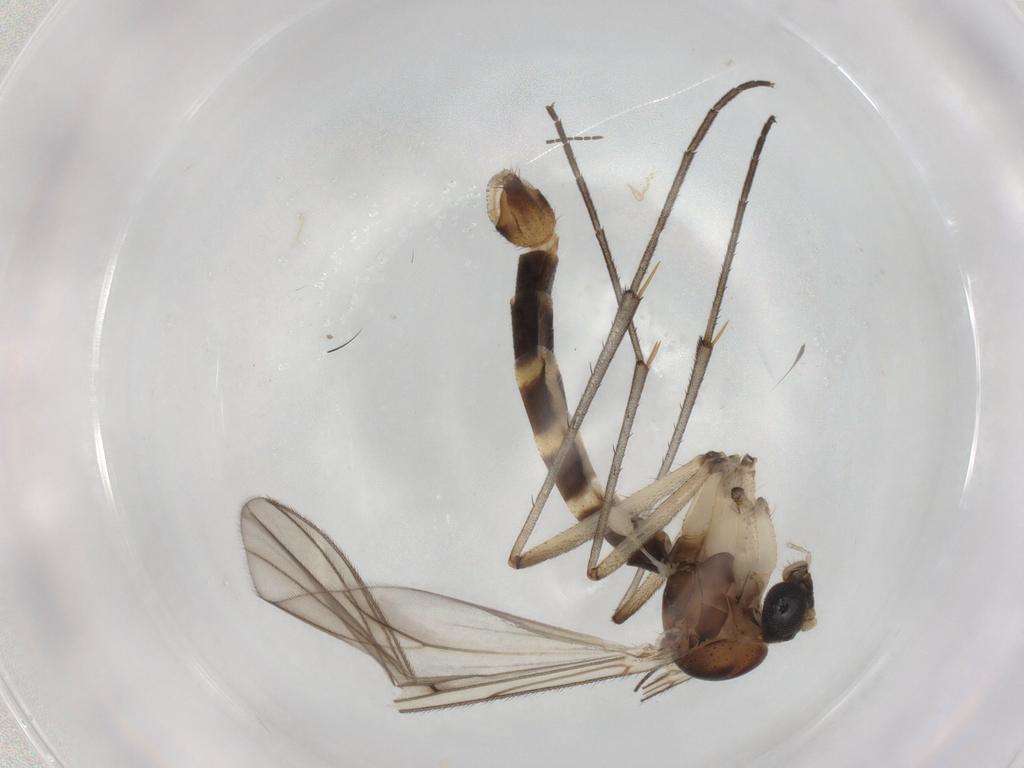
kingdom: Animalia
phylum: Arthropoda
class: Insecta
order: Diptera
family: Cecidomyiidae
